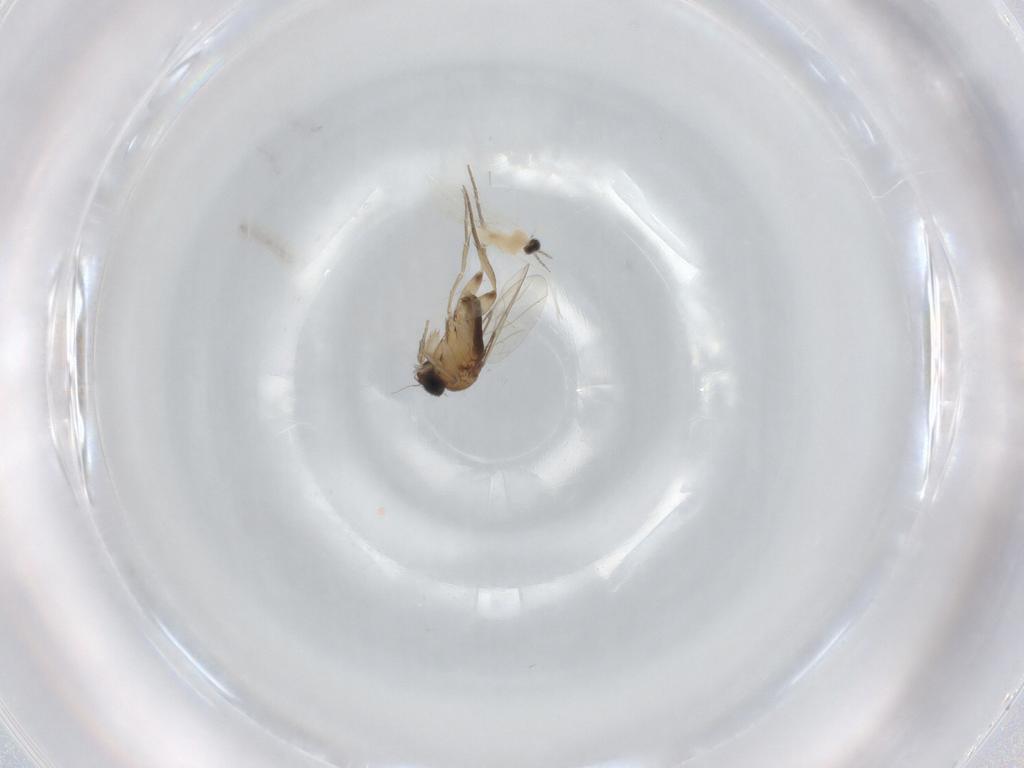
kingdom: Animalia
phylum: Arthropoda
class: Insecta
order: Diptera
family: Phoridae
